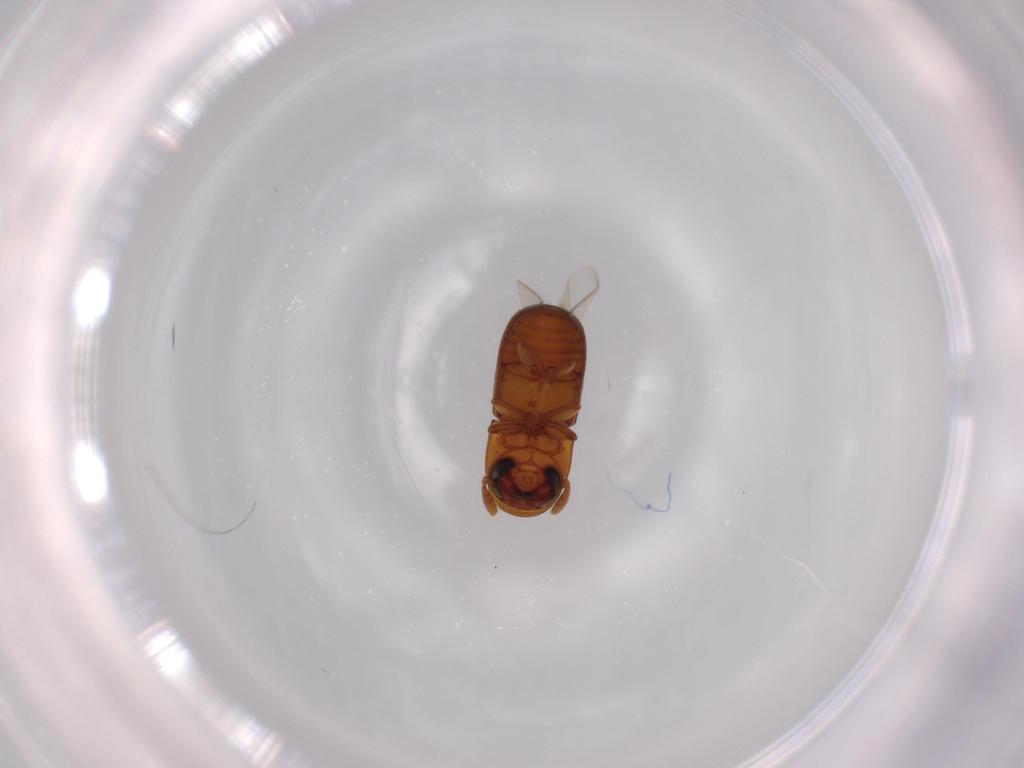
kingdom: Animalia
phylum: Arthropoda
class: Insecta
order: Coleoptera
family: Curculionidae
